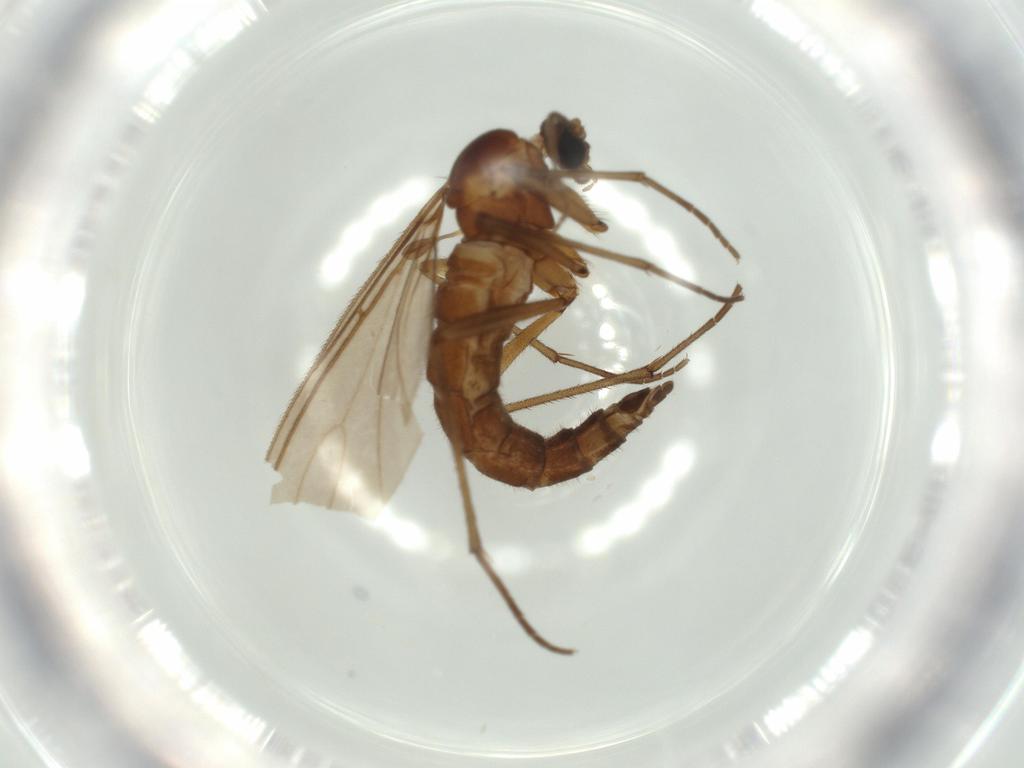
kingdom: Animalia
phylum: Arthropoda
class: Insecta
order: Diptera
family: Sciaridae
